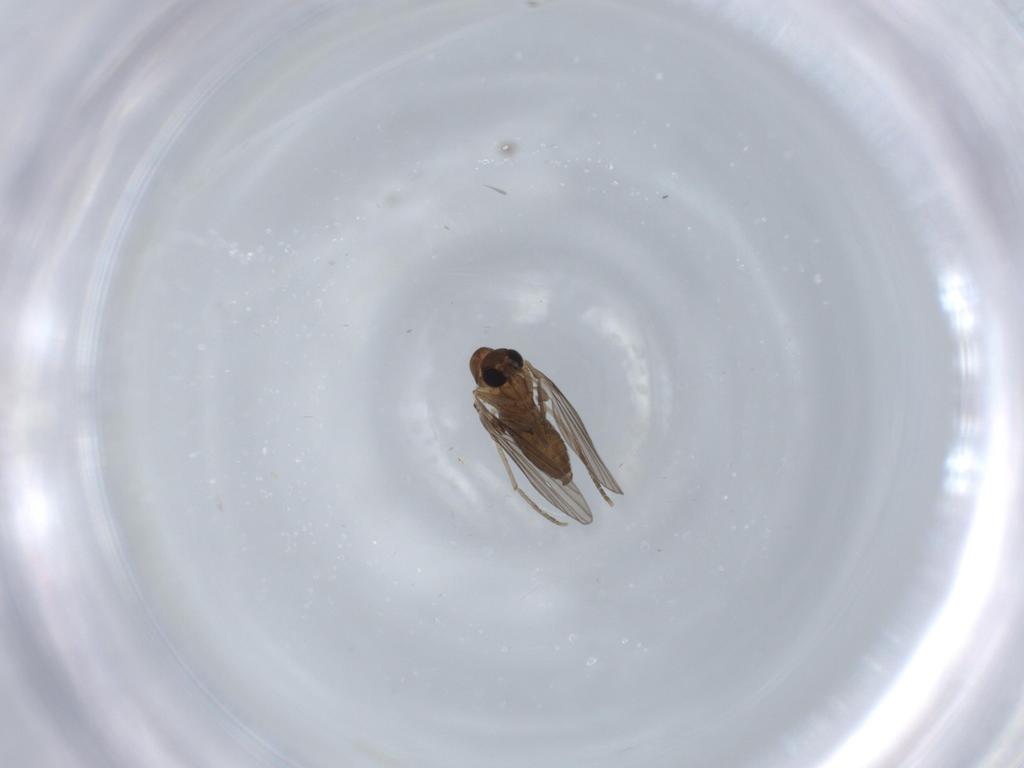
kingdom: Animalia
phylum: Arthropoda
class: Insecta
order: Diptera
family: Psychodidae
